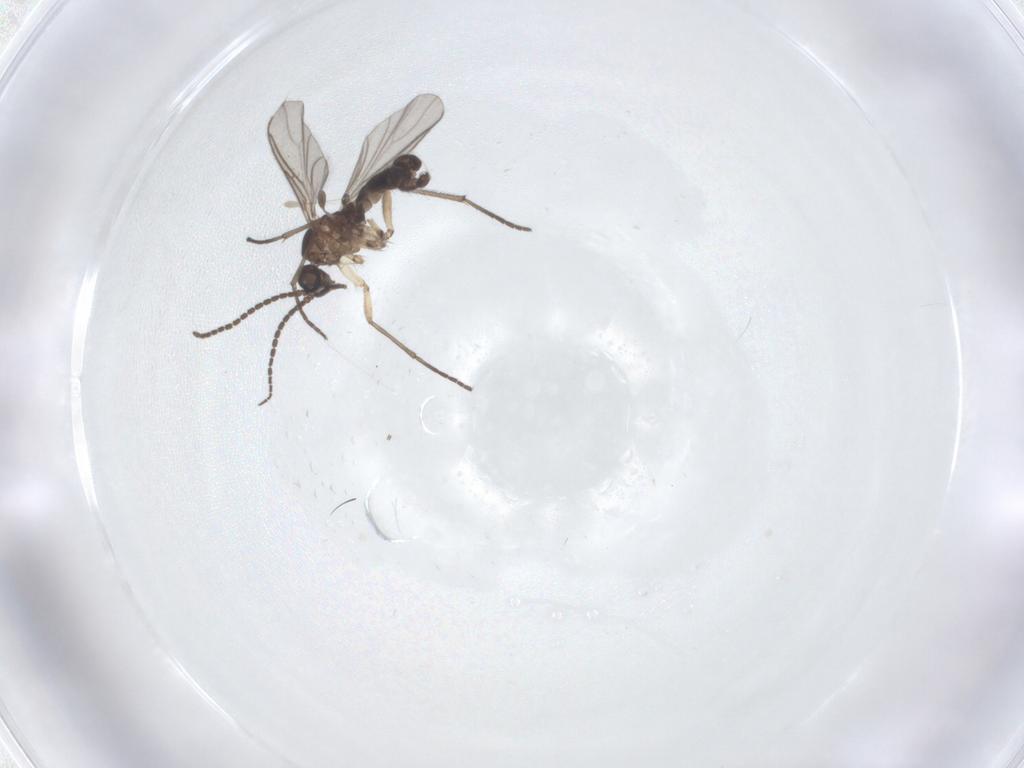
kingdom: Animalia
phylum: Arthropoda
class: Insecta
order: Diptera
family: Sciaridae
